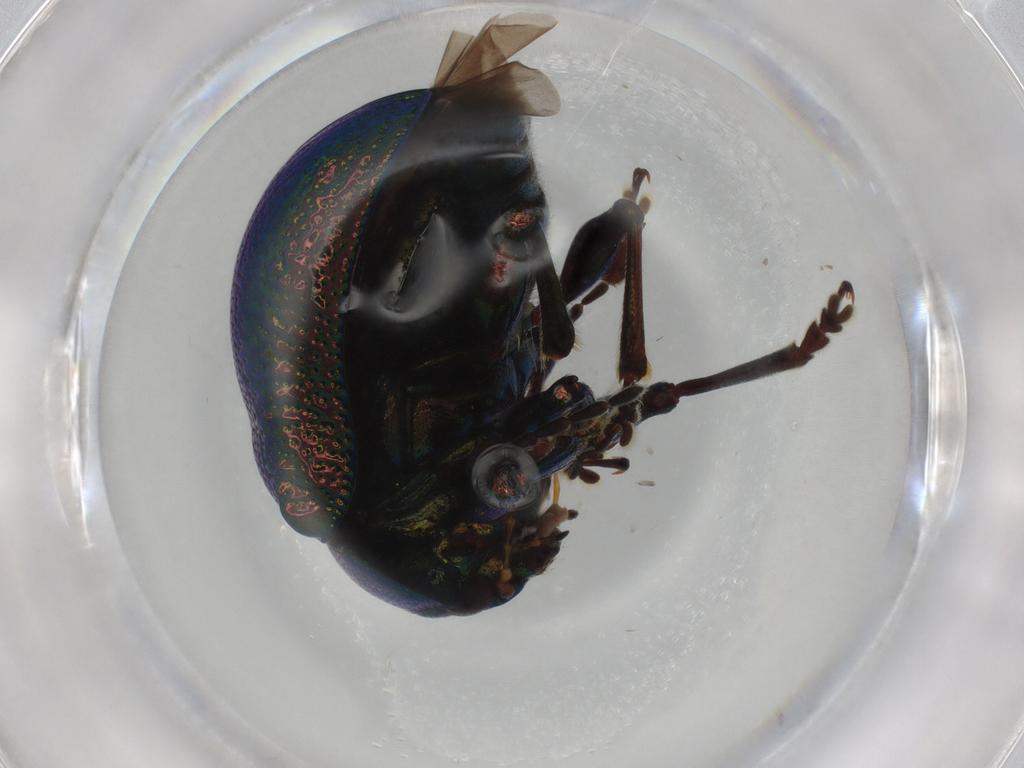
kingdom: Animalia
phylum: Arthropoda
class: Insecta
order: Coleoptera
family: Chrysomelidae
